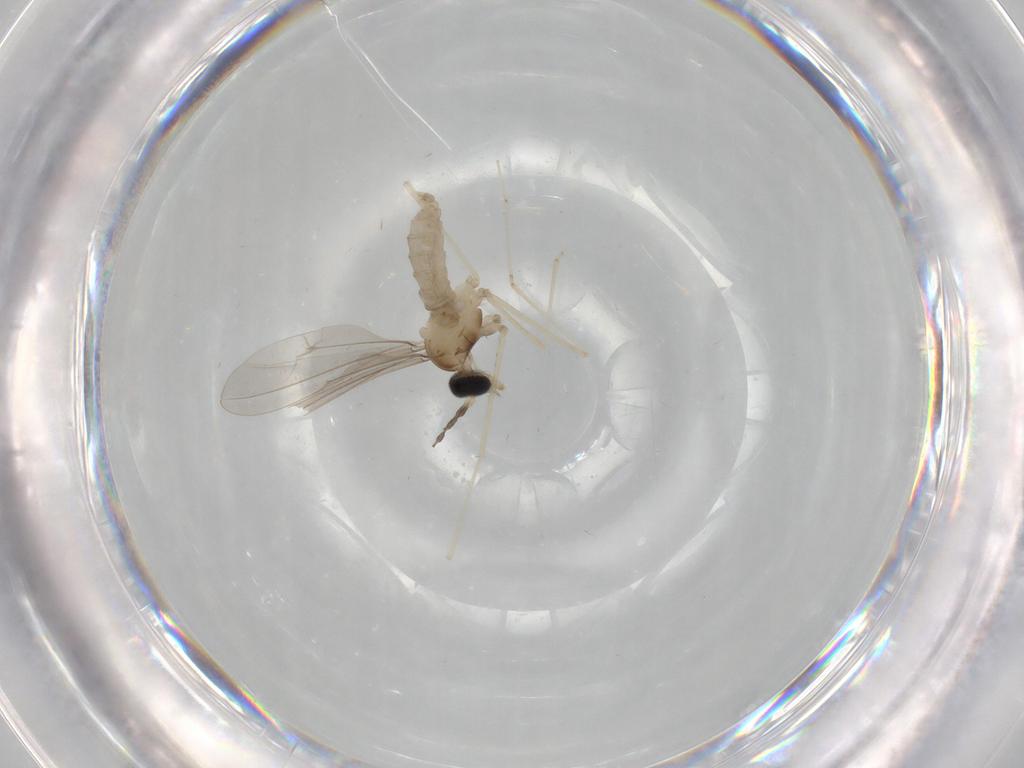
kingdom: Animalia
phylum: Arthropoda
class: Insecta
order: Diptera
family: Cecidomyiidae
